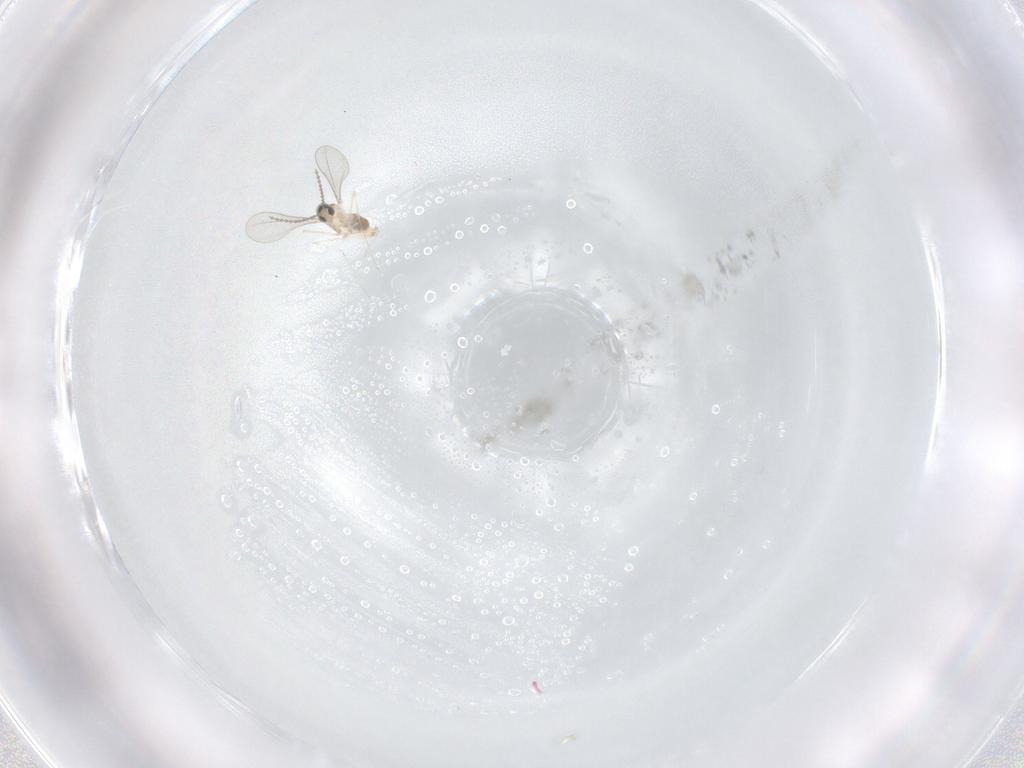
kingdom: Animalia
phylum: Arthropoda
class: Insecta
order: Diptera
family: Cecidomyiidae
